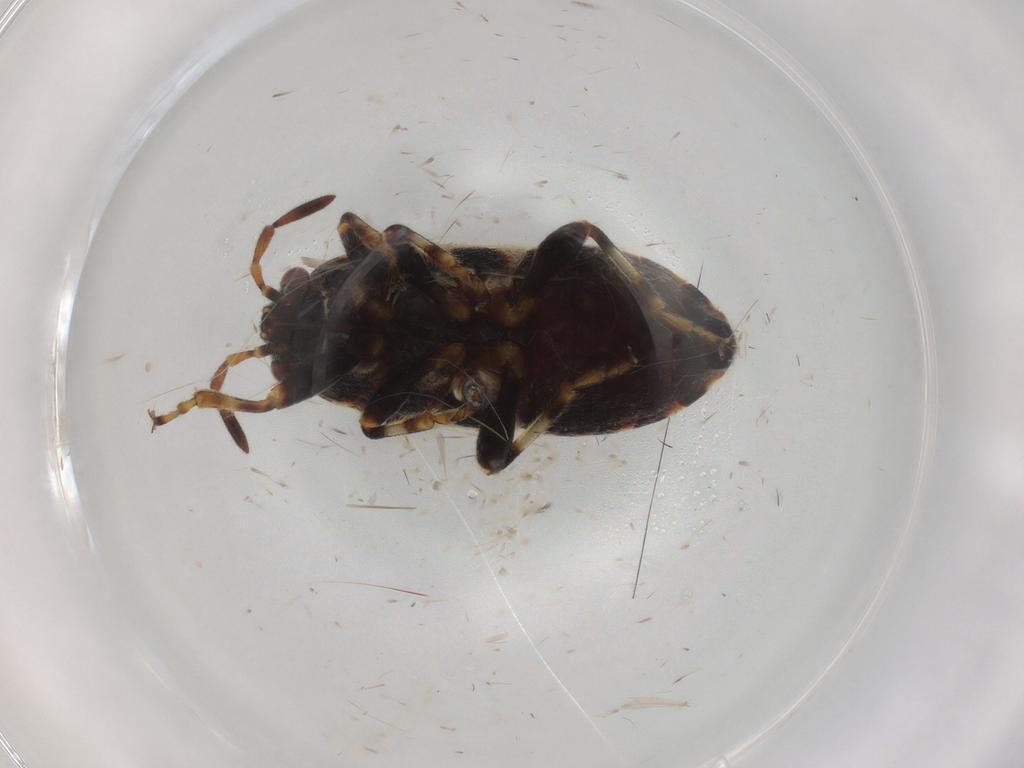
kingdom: Animalia
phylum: Arthropoda
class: Insecta
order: Hemiptera
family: Lygaeidae
